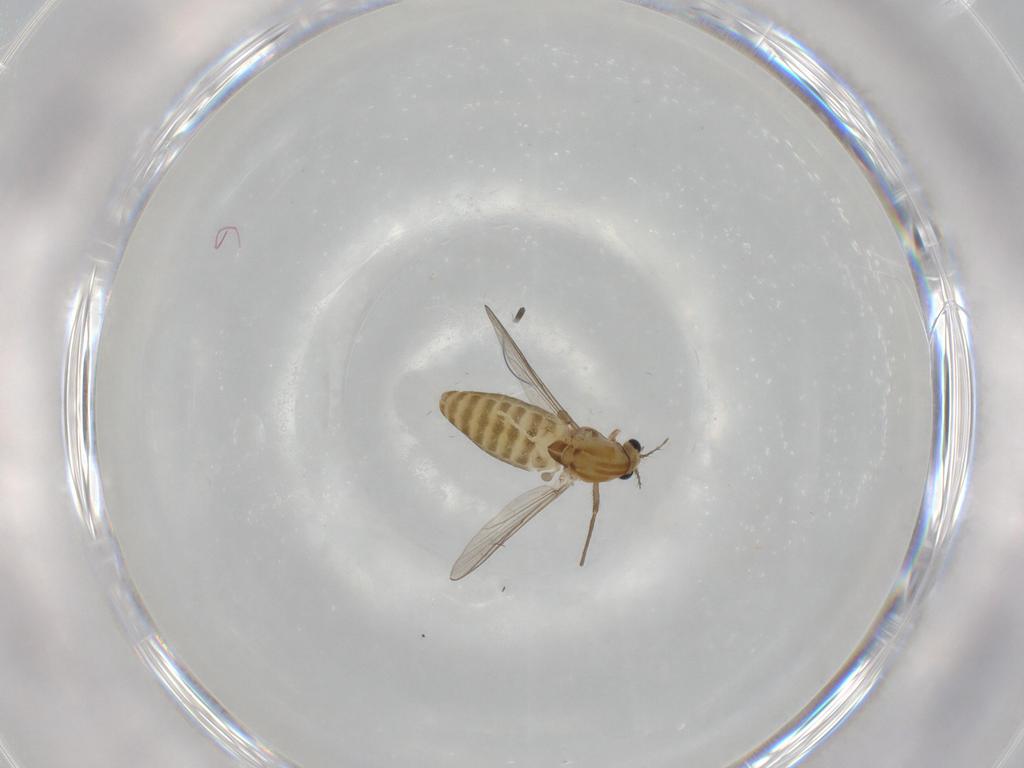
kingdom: Animalia
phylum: Arthropoda
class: Insecta
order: Diptera
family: Chironomidae
